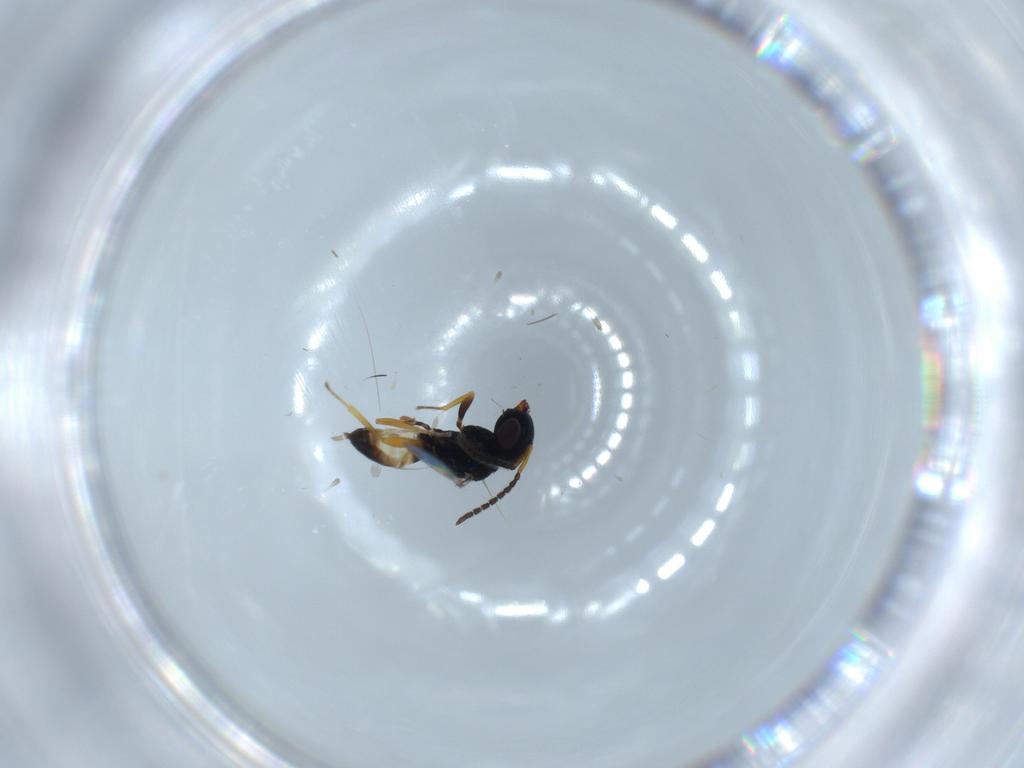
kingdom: Animalia
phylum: Arthropoda
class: Insecta
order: Hymenoptera
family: Pteromalidae
